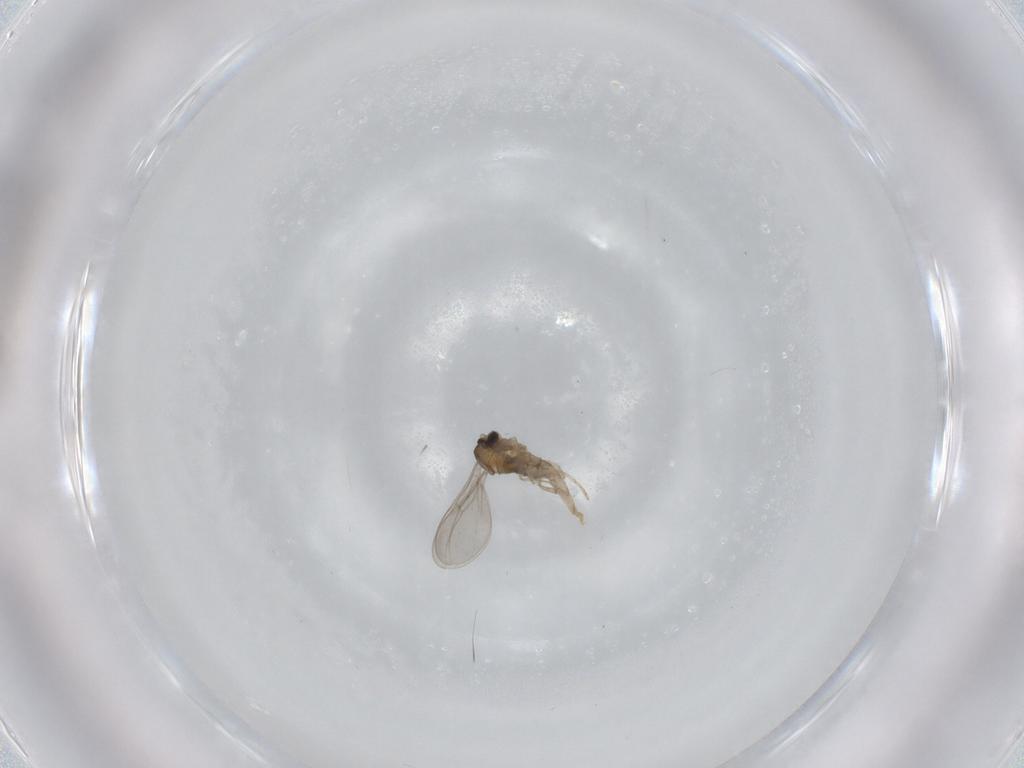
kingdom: Animalia
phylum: Arthropoda
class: Insecta
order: Diptera
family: Cecidomyiidae
